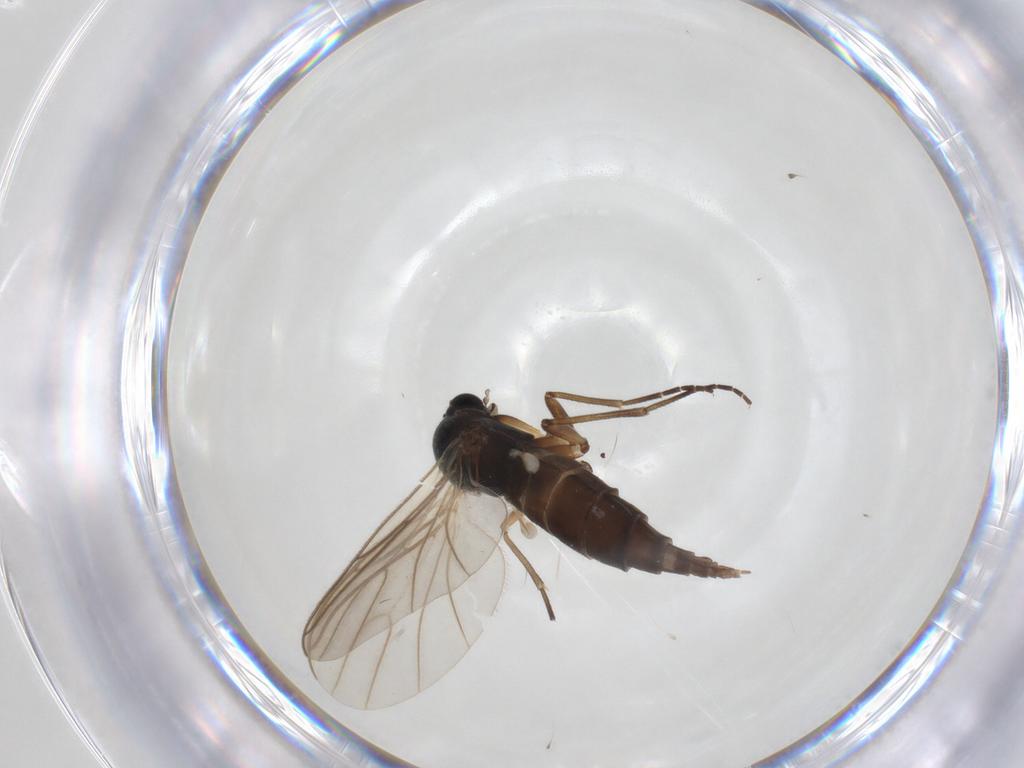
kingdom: Animalia
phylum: Arthropoda
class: Insecta
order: Diptera
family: Sciaridae
